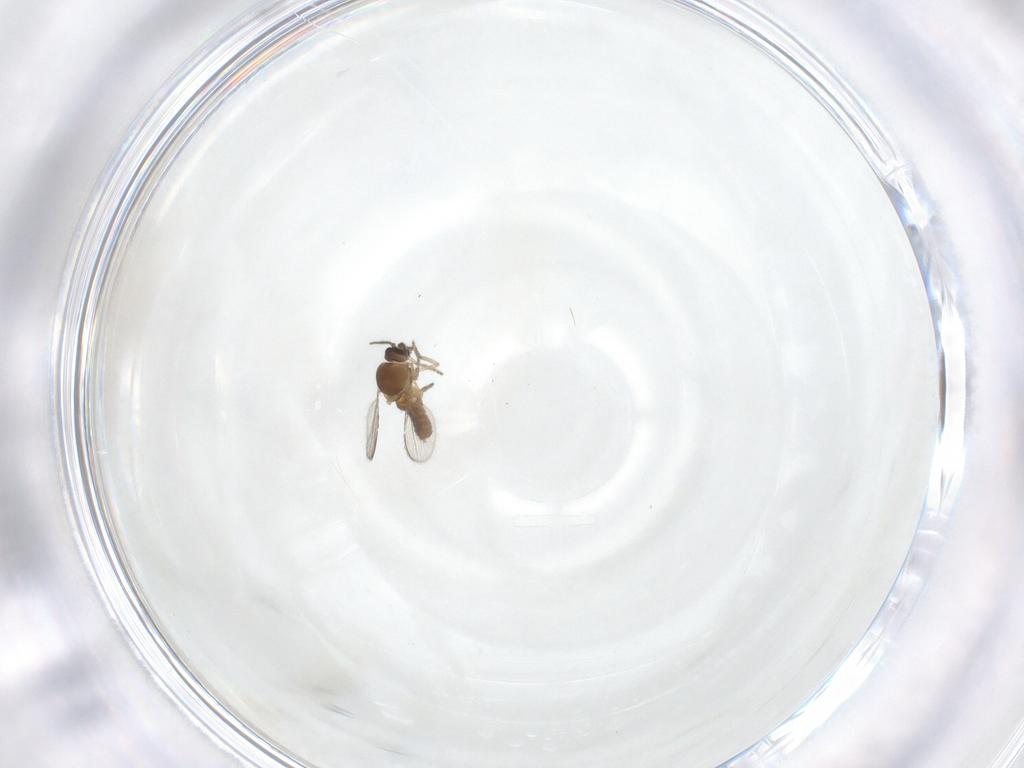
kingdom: Animalia
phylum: Arthropoda
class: Insecta
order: Diptera
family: Ceratopogonidae
